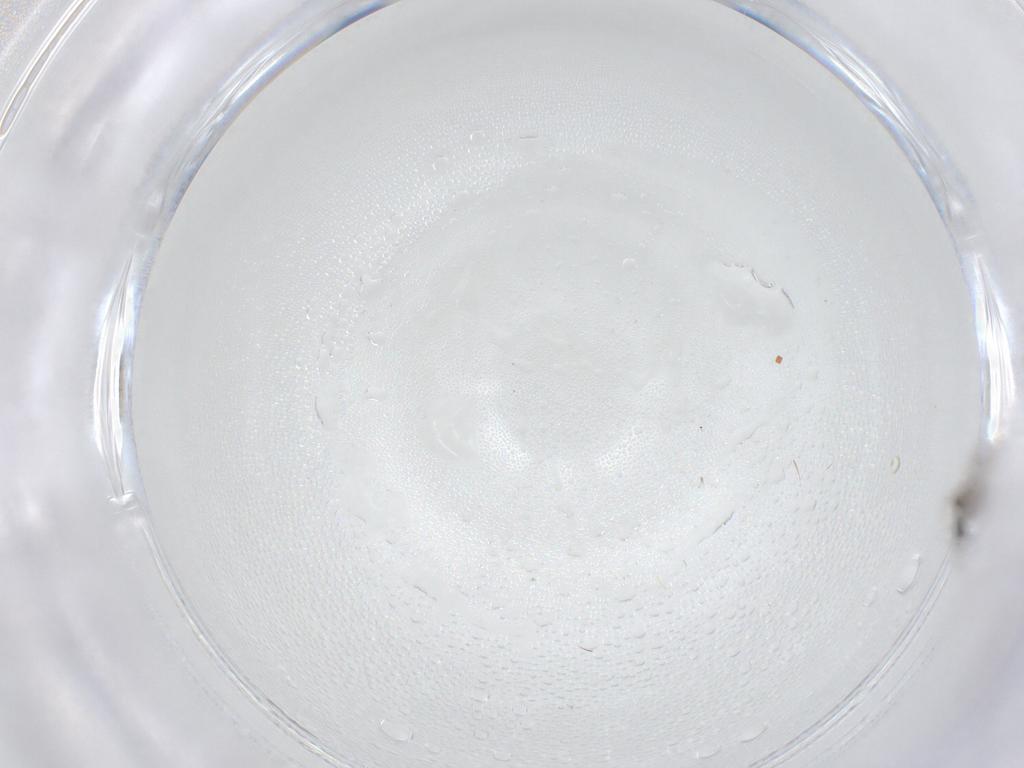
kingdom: Animalia
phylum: Arthropoda
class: Insecta
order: Diptera
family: Cecidomyiidae
